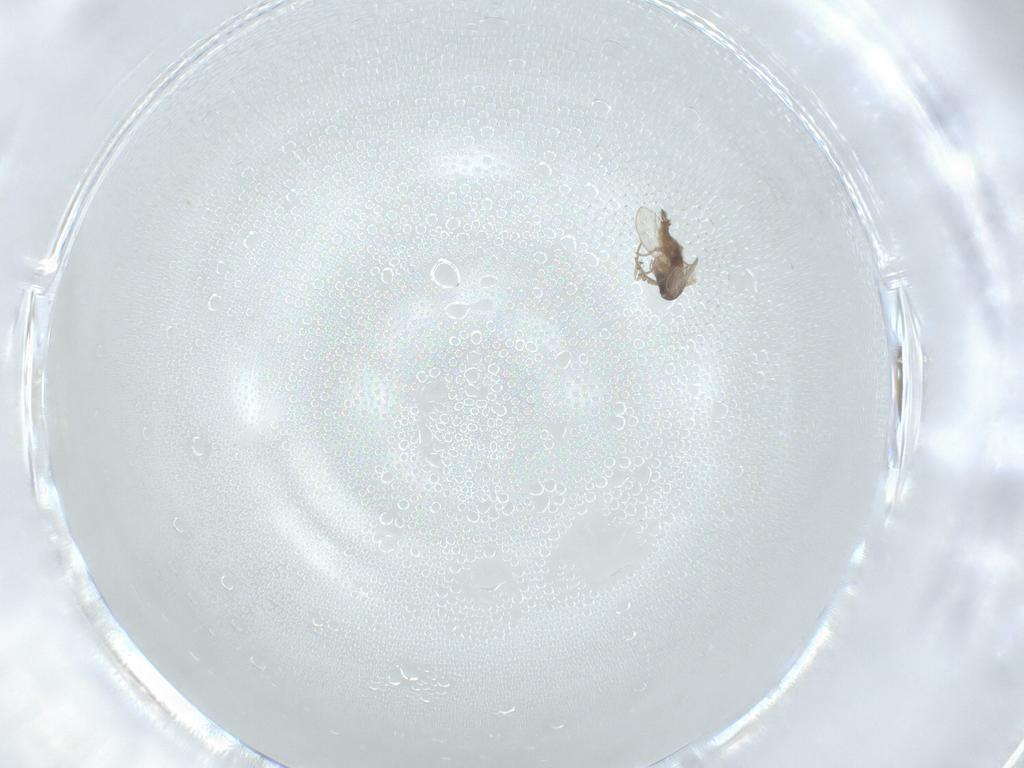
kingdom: Animalia
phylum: Arthropoda
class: Insecta
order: Diptera
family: Psychodidae
